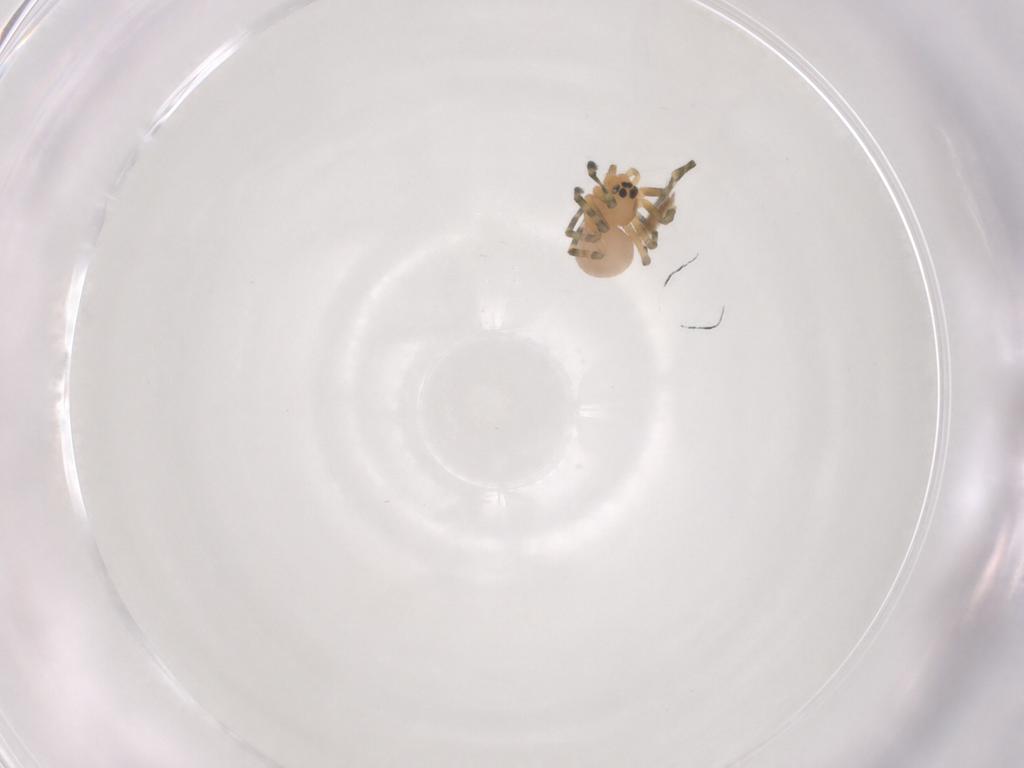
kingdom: Animalia
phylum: Arthropoda
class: Arachnida
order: Araneae
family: Linyphiidae
